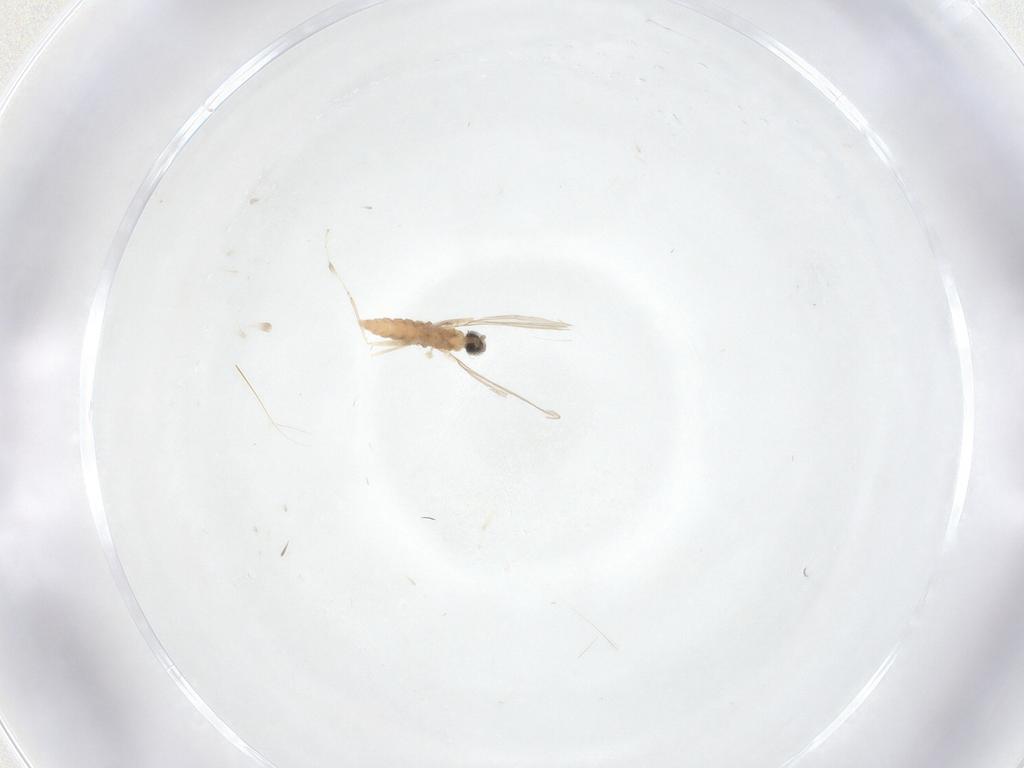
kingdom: Animalia
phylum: Arthropoda
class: Insecta
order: Diptera
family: Cecidomyiidae
